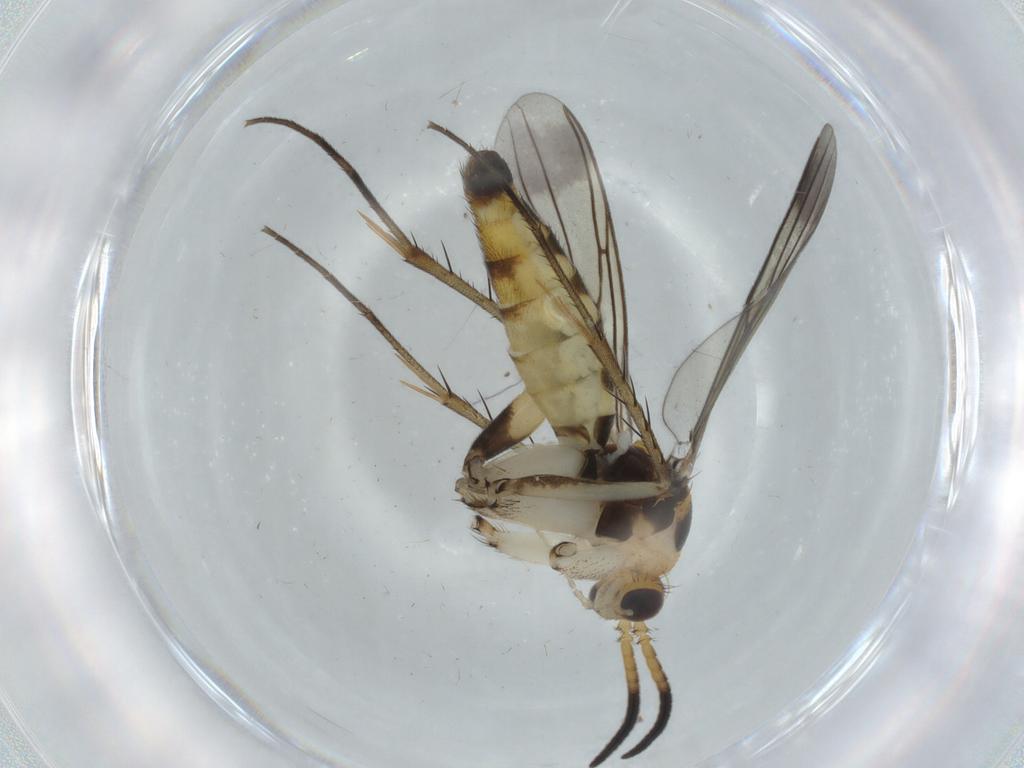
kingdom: Animalia
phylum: Arthropoda
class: Insecta
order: Diptera
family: Mycetophilidae
